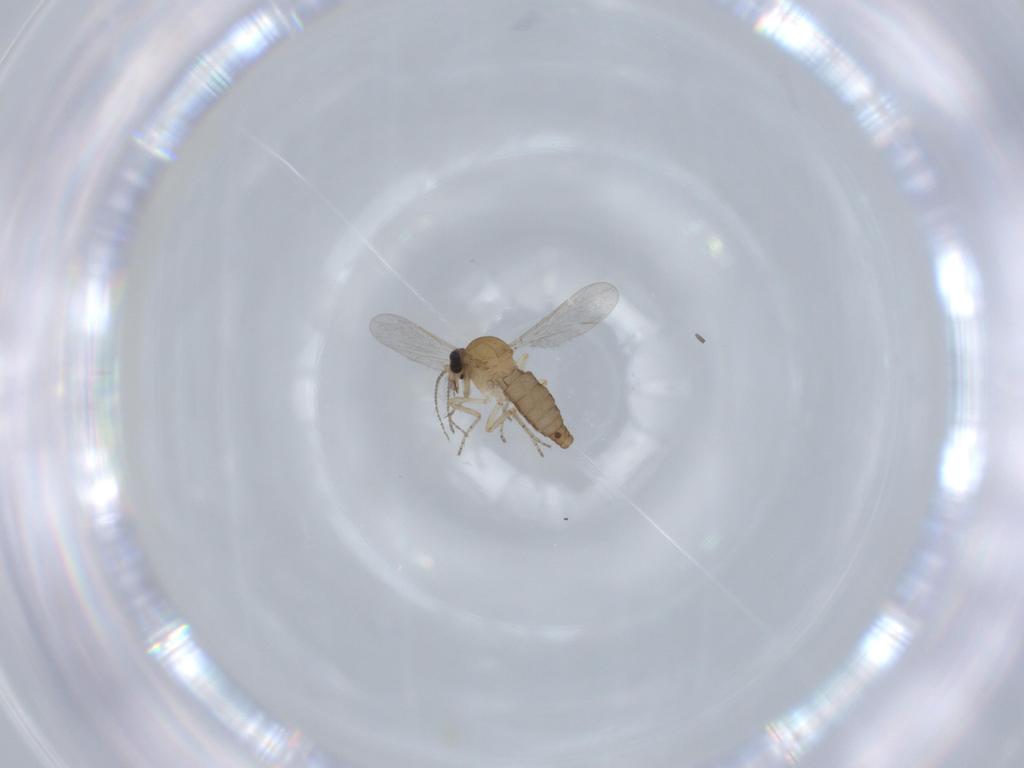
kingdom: Animalia
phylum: Arthropoda
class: Insecta
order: Diptera
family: Ceratopogonidae
